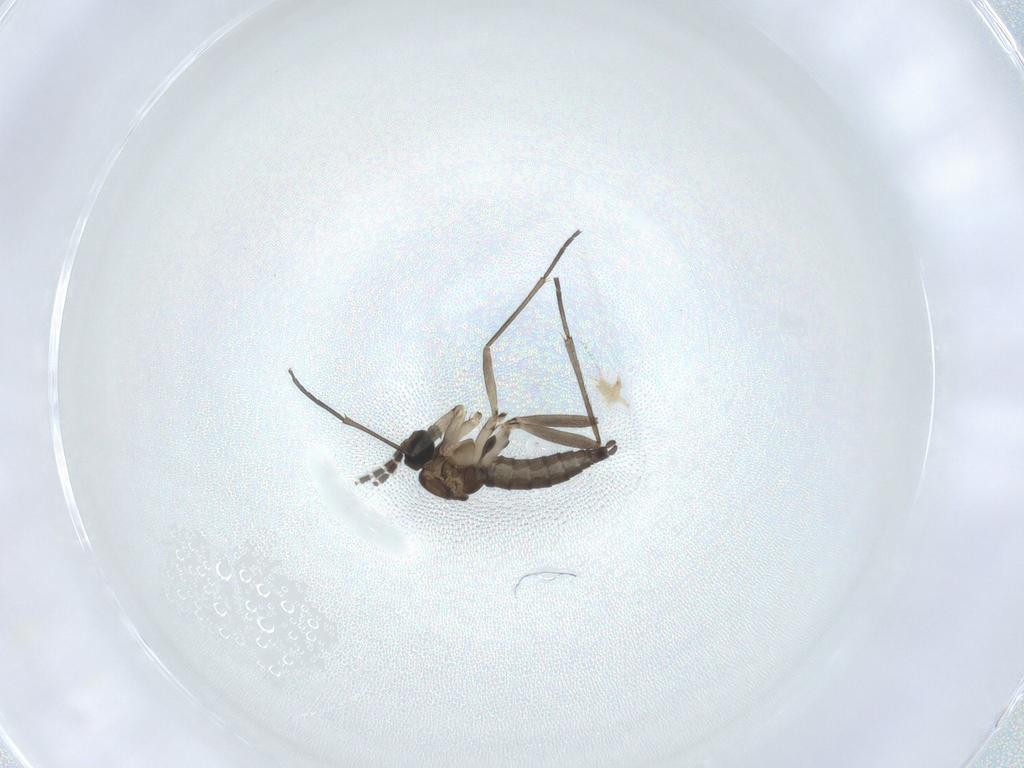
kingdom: Animalia
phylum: Arthropoda
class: Insecta
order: Diptera
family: Sciaridae
